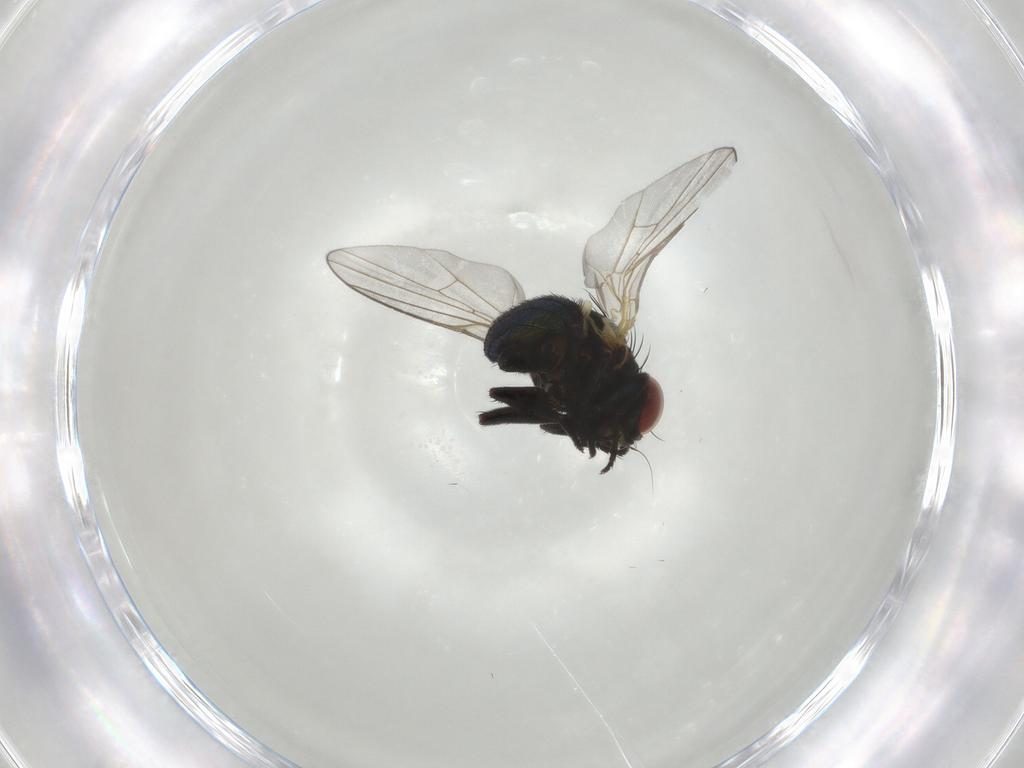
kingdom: Animalia
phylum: Arthropoda
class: Insecta
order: Diptera
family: Agromyzidae
